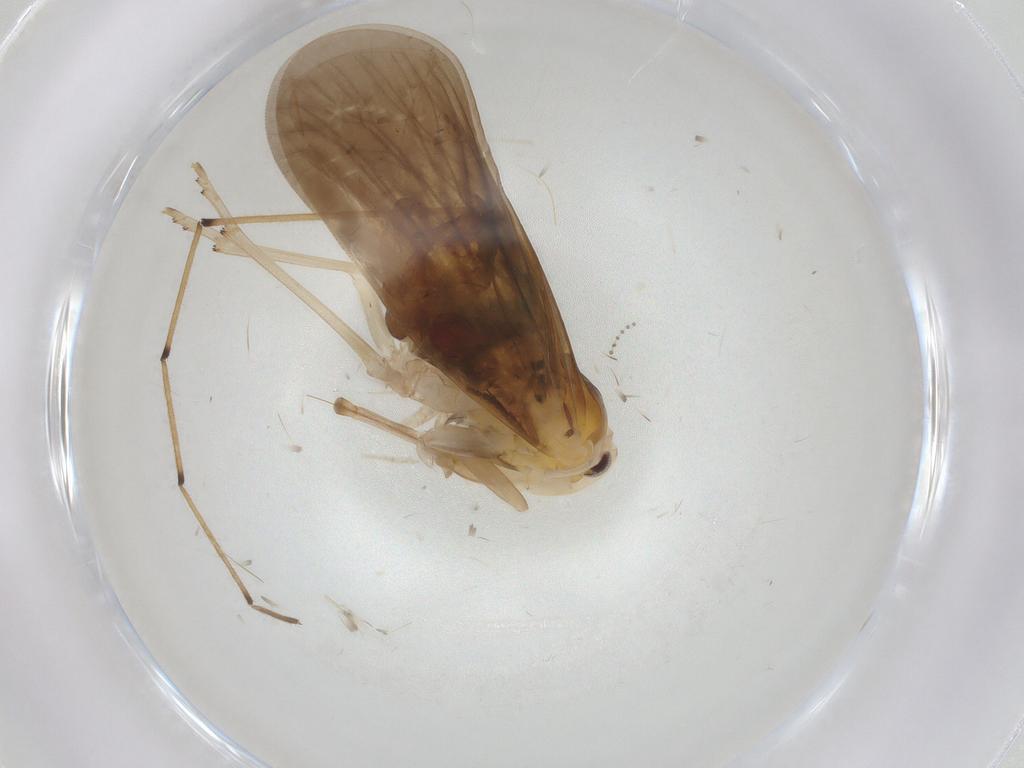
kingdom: Animalia
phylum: Arthropoda
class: Insecta
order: Hemiptera
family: Derbidae
